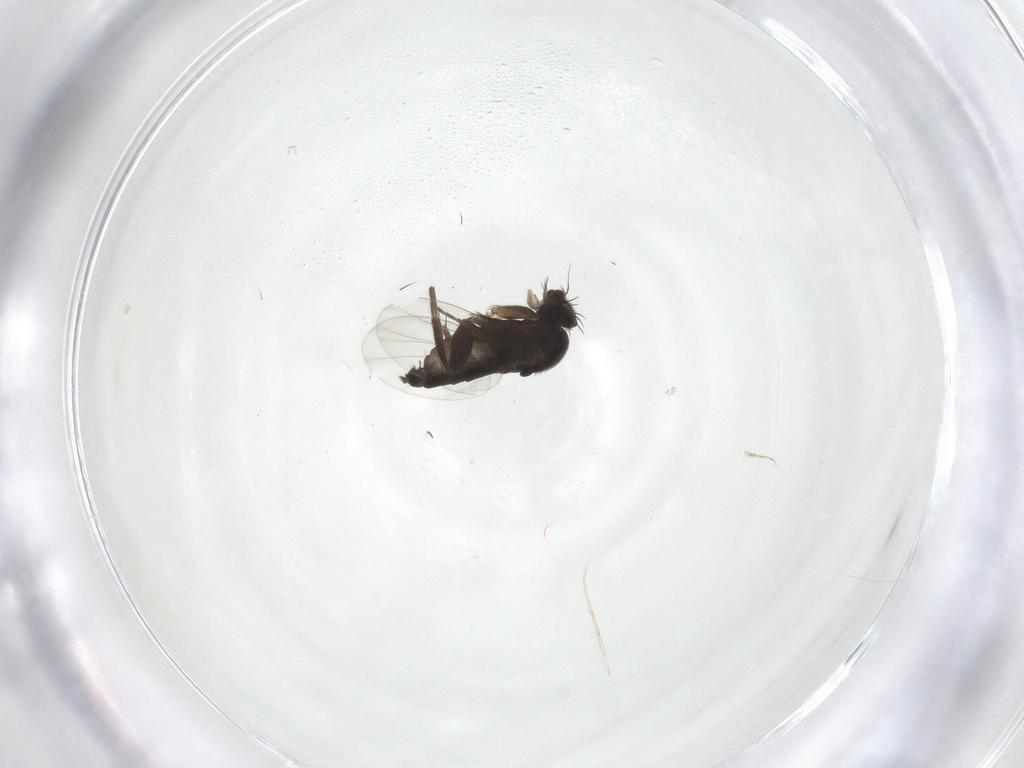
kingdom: Animalia
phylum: Arthropoda
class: Insecta
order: Diptera
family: Phoridae
